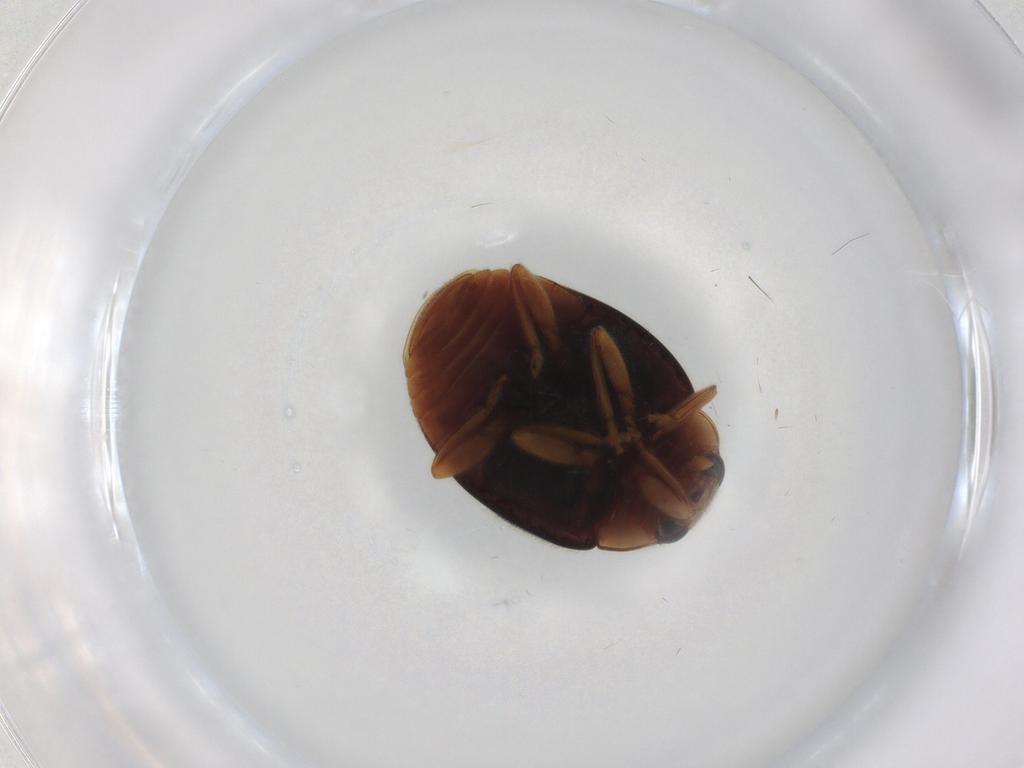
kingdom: Animalia
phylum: Arthropoda
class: Insecta
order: Coleoptera
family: Coccinellidae
